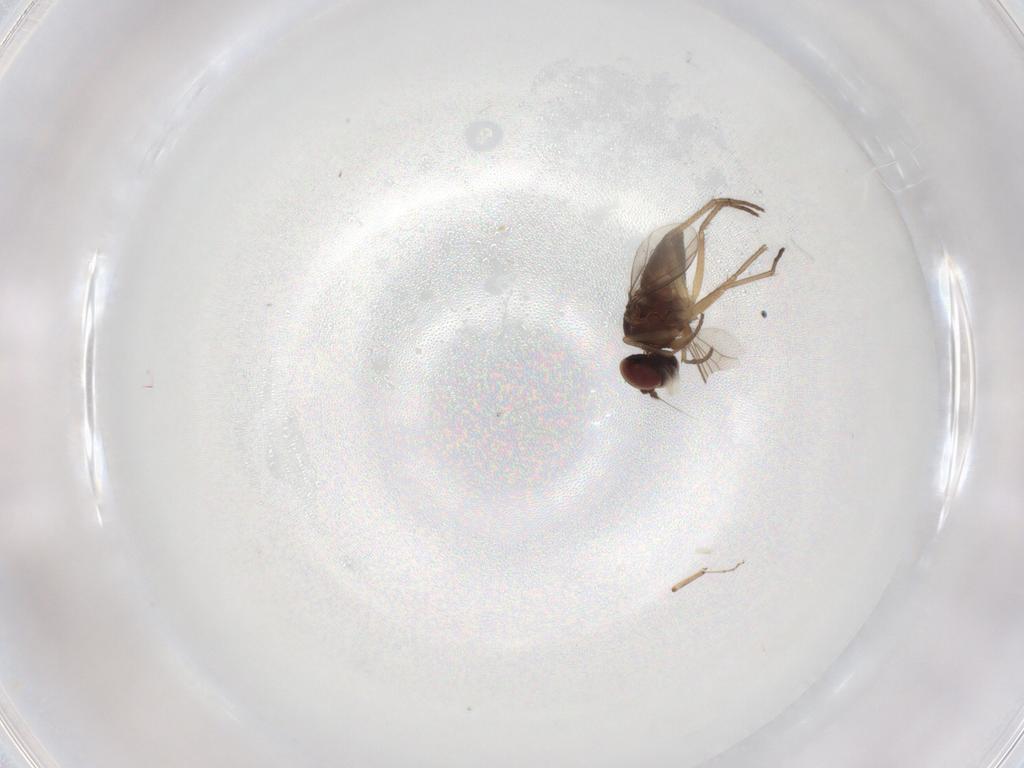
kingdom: Animalia
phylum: Arthropoda
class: Insecta
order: Diptera
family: Dolichopodidae
